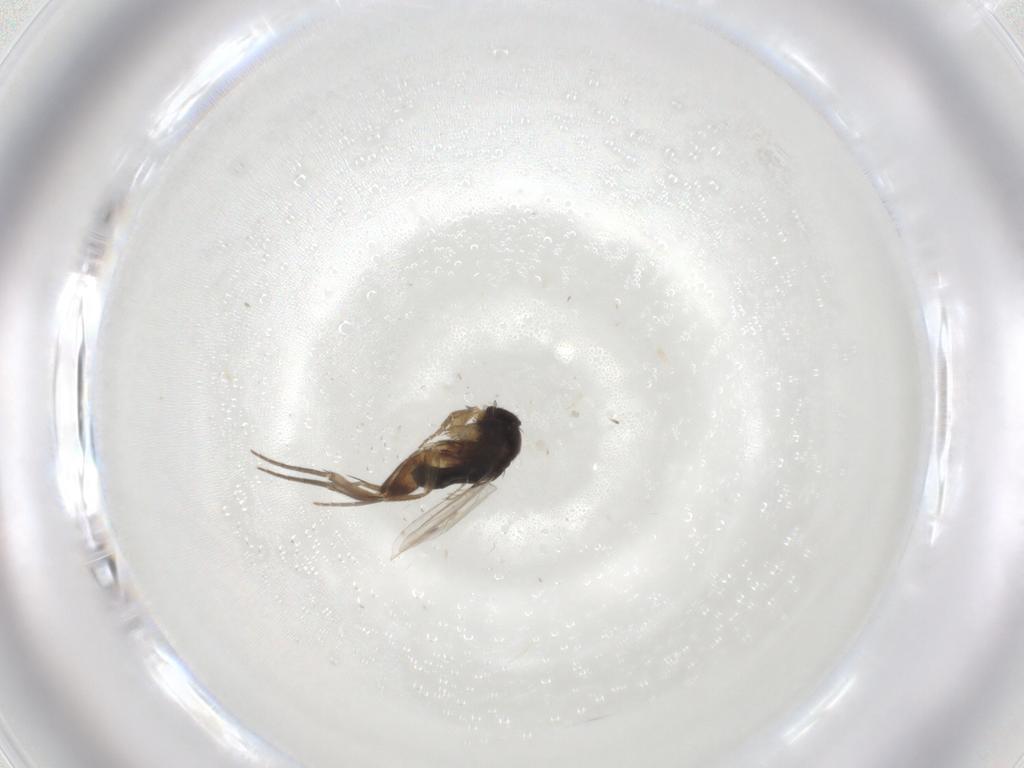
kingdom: Animalia
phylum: Arthropoda
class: Insecta
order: Diptera
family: Phoridae
